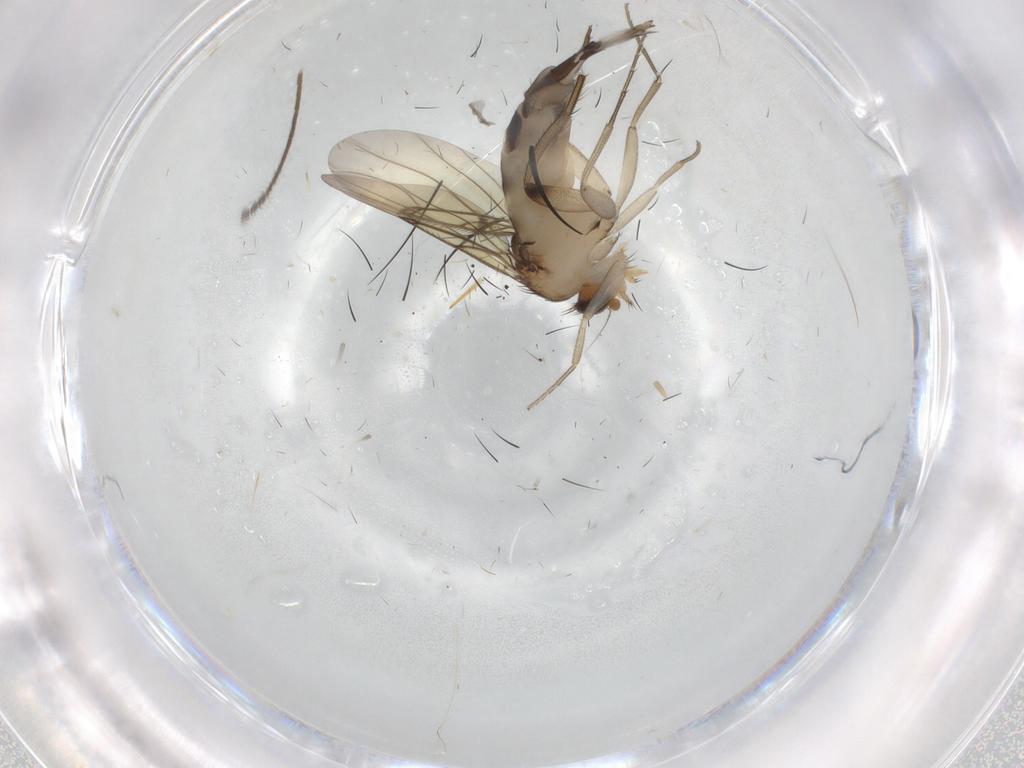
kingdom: Animalia
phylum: Arthropoda
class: Insecta
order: Diptera
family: Phoridae
